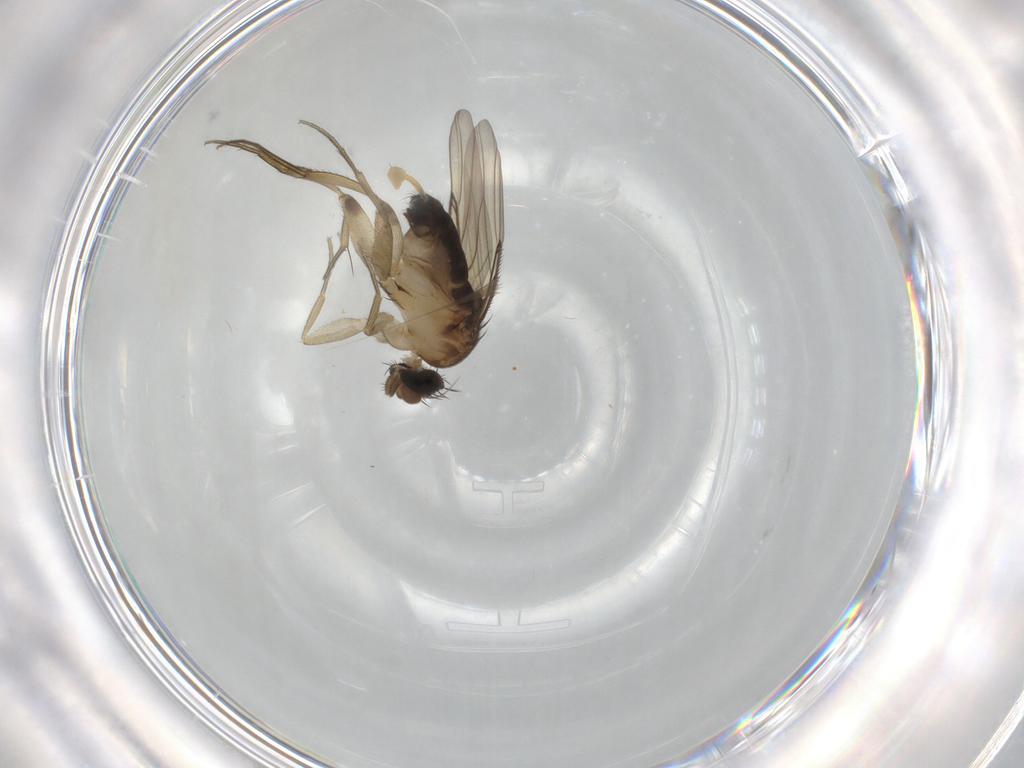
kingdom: Animalia
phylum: Arthropoda
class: Insecta
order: Diptera
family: Phoridae
